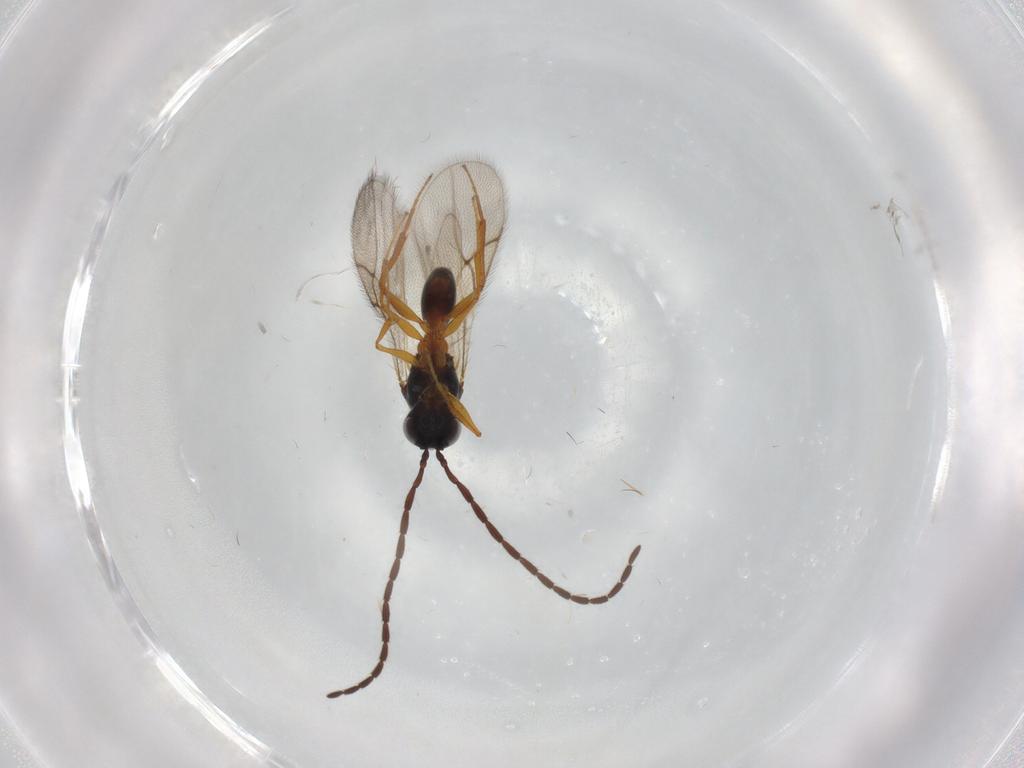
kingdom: Animalia
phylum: Arthropoda
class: Insecta
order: Hymenoptera
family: Figitidae
